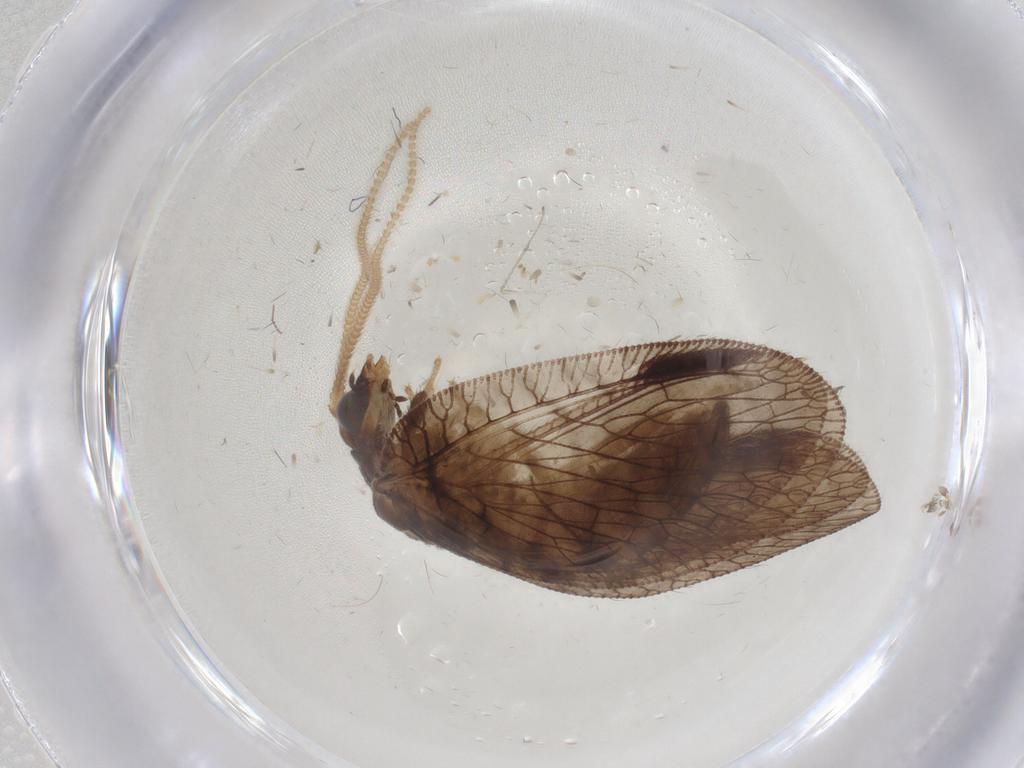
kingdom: Animalia
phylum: Arthropoda
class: Insecta
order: Neuroptera
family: Hemerobiidae
